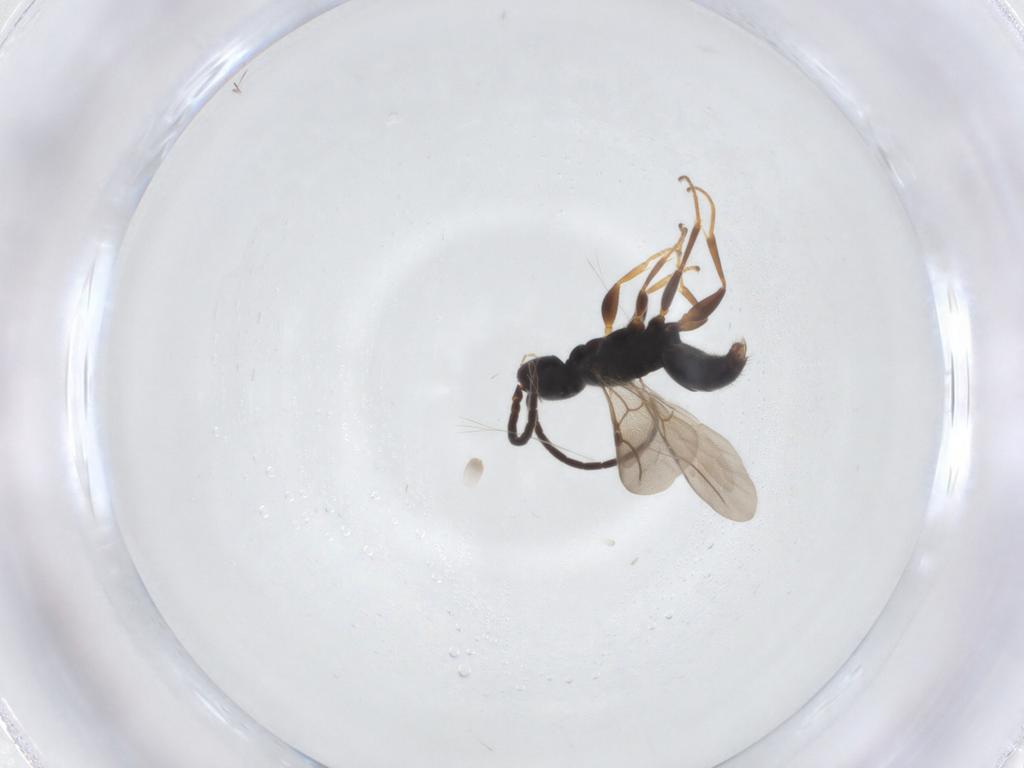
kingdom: Animalia
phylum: Arthropoda
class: Insecta
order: Hymenoptera
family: Bethylidae
